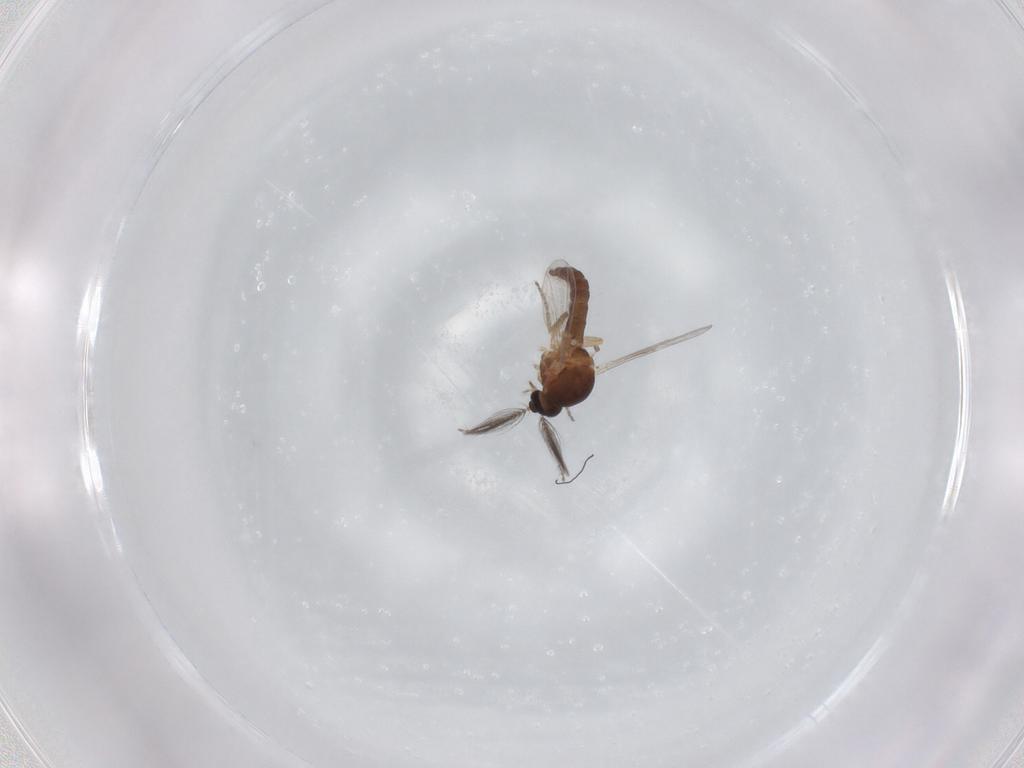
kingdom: Animalia
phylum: Arthropoda
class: Insecta
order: Diptera
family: Ceratopogonidae
